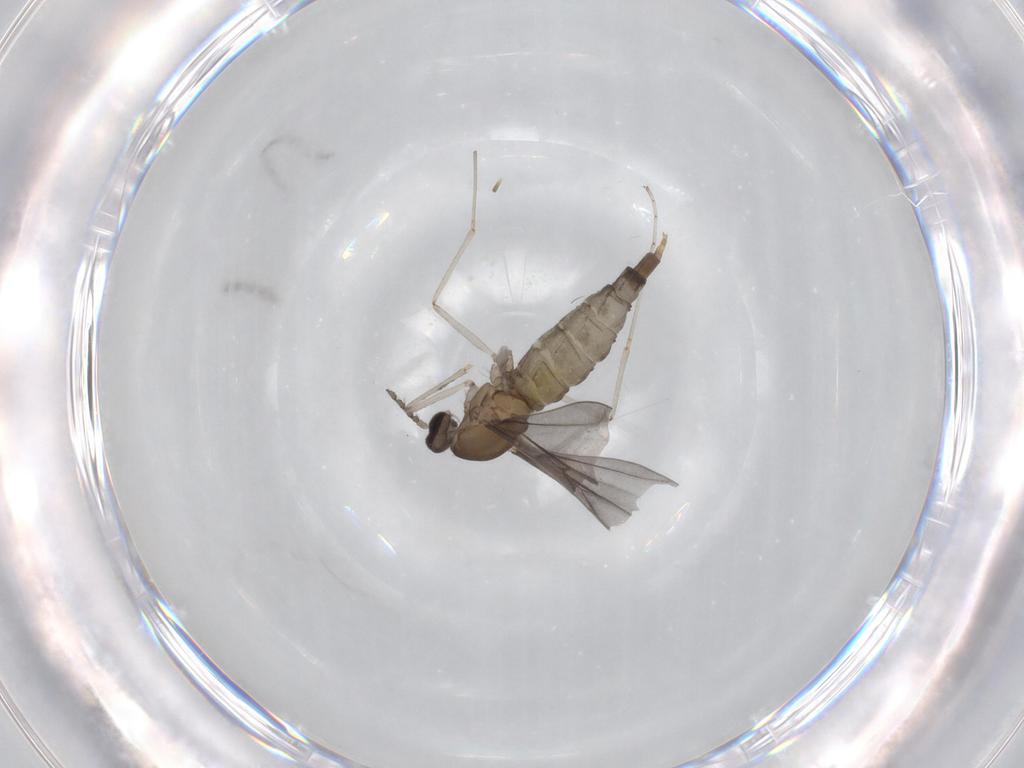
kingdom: Animalia
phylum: Arthropoda
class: Insecta
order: Diptera
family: Cecidomyiidae
